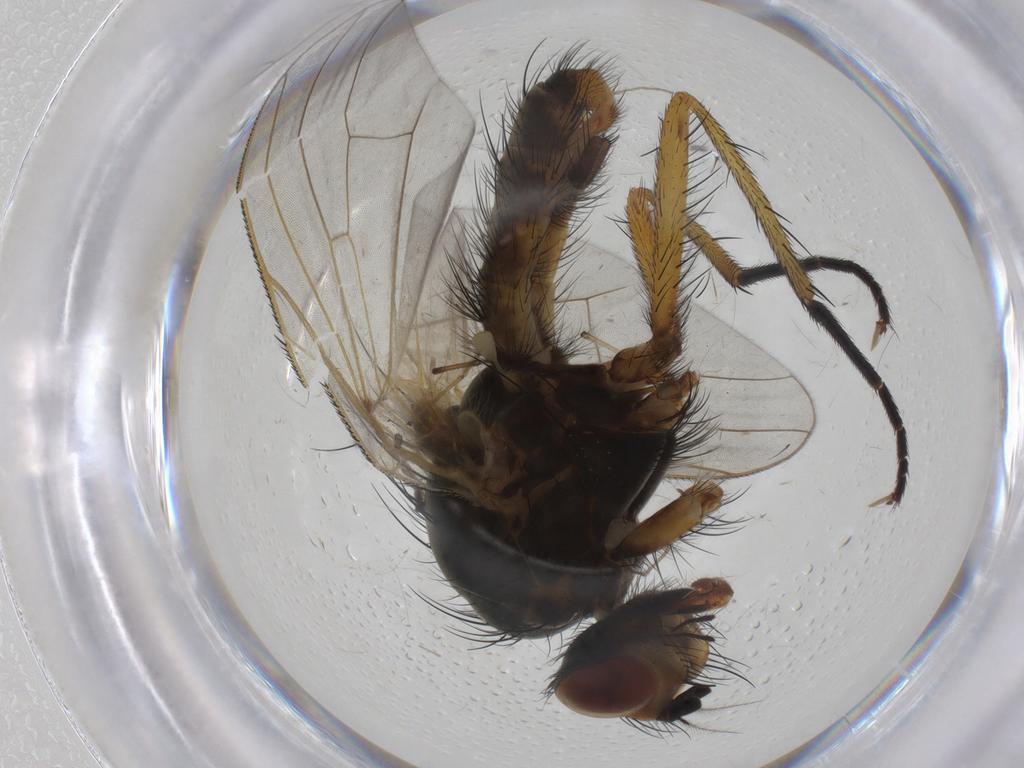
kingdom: Animalia
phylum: Arthropoda
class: Insecta
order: Diptera
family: Anthomyiidae
